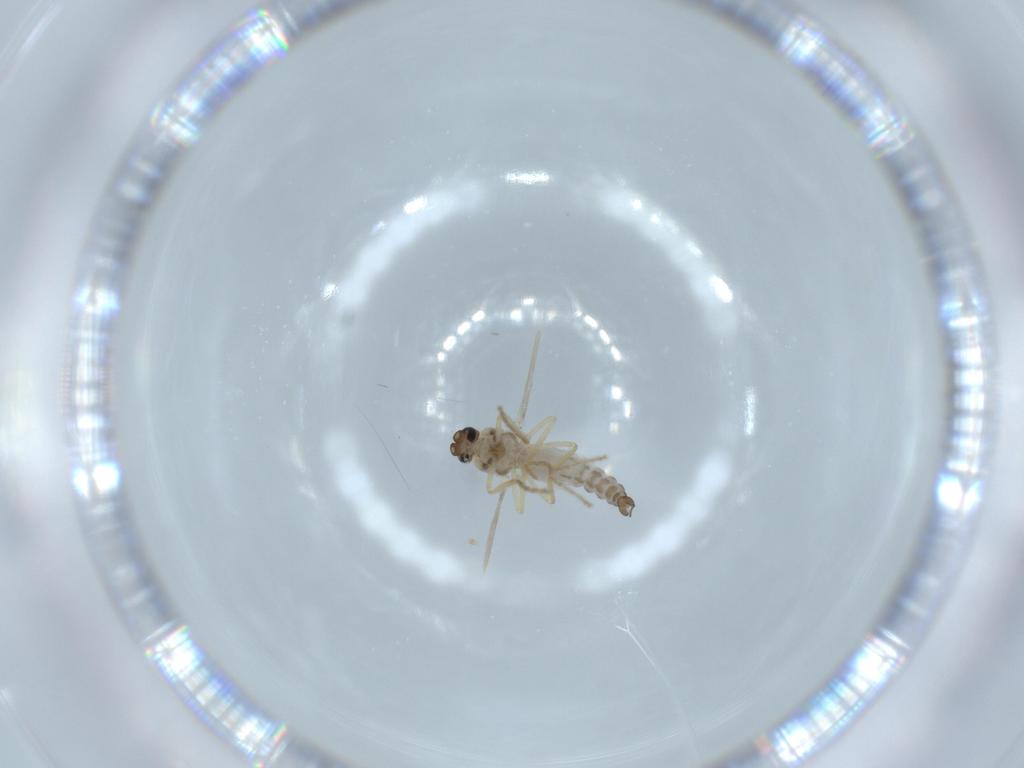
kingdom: Animalia
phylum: Arthropoda
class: Insecta
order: Diptera
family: Ceratopogonidae
